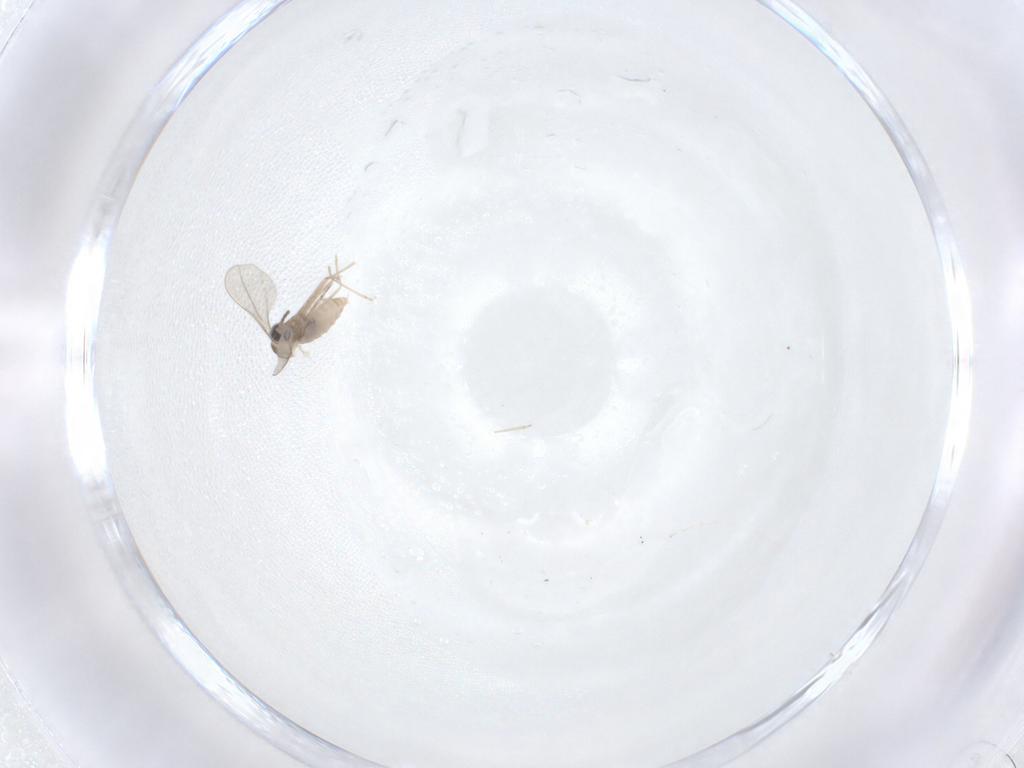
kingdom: Animalia
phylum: Arthropoda
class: Insecta
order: Diptera
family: Cecidomyiidae
